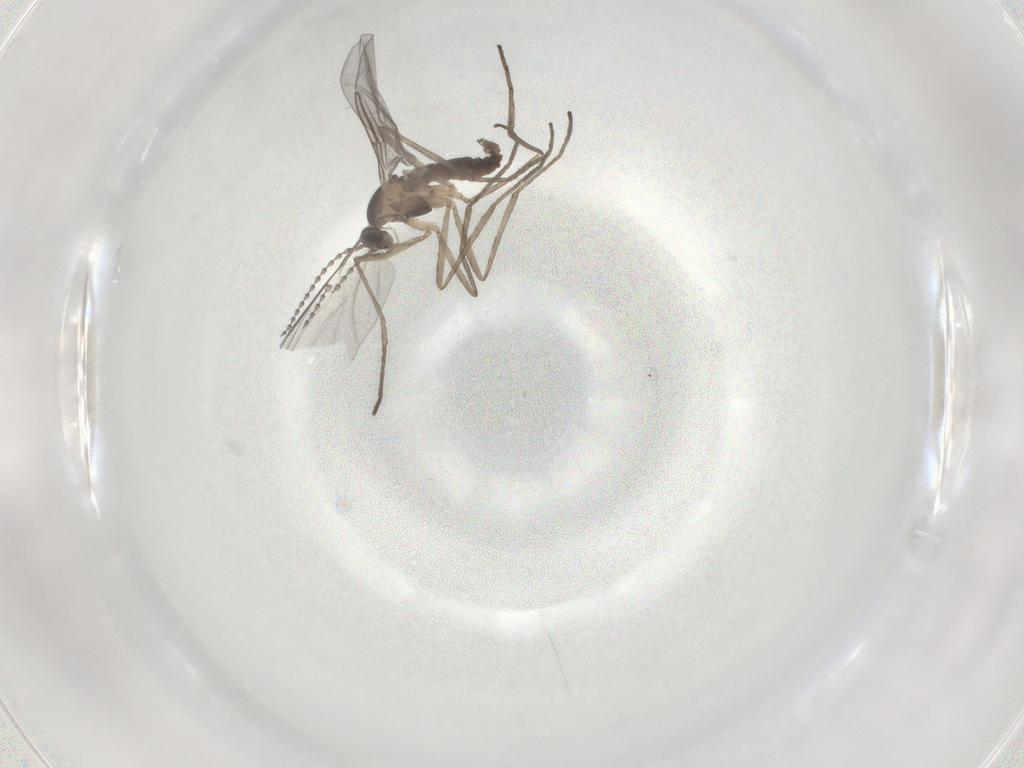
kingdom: Animalia
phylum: Arthropoda
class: Insecta
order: Diptera
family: Cecidomyiidae
